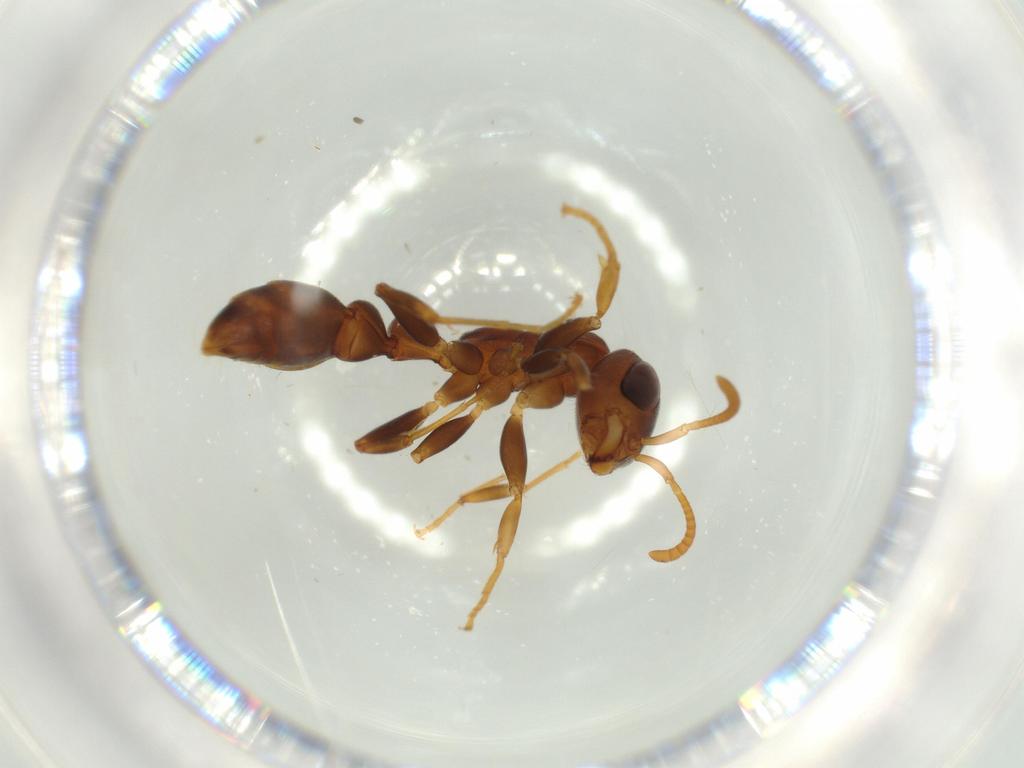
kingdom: Animalia
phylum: Arthropoda
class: Insecta
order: Hymenoptera
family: Formicidae
